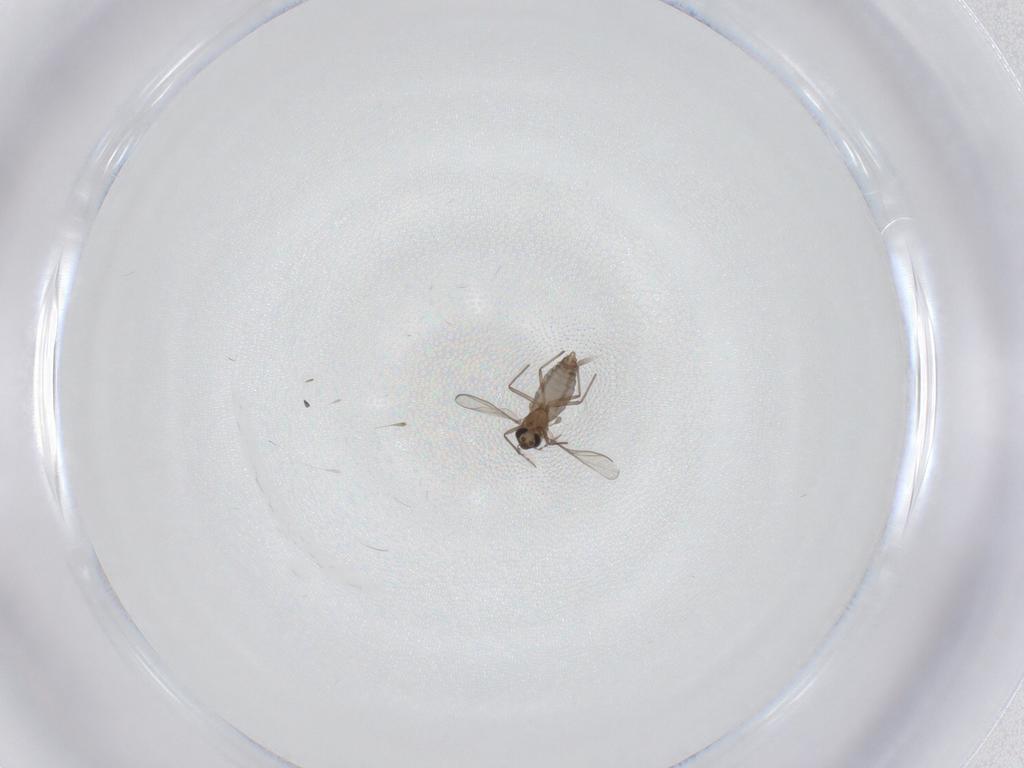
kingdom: Animalia
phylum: Arthropoda
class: Insecta
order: Diptera
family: Chironomidae
